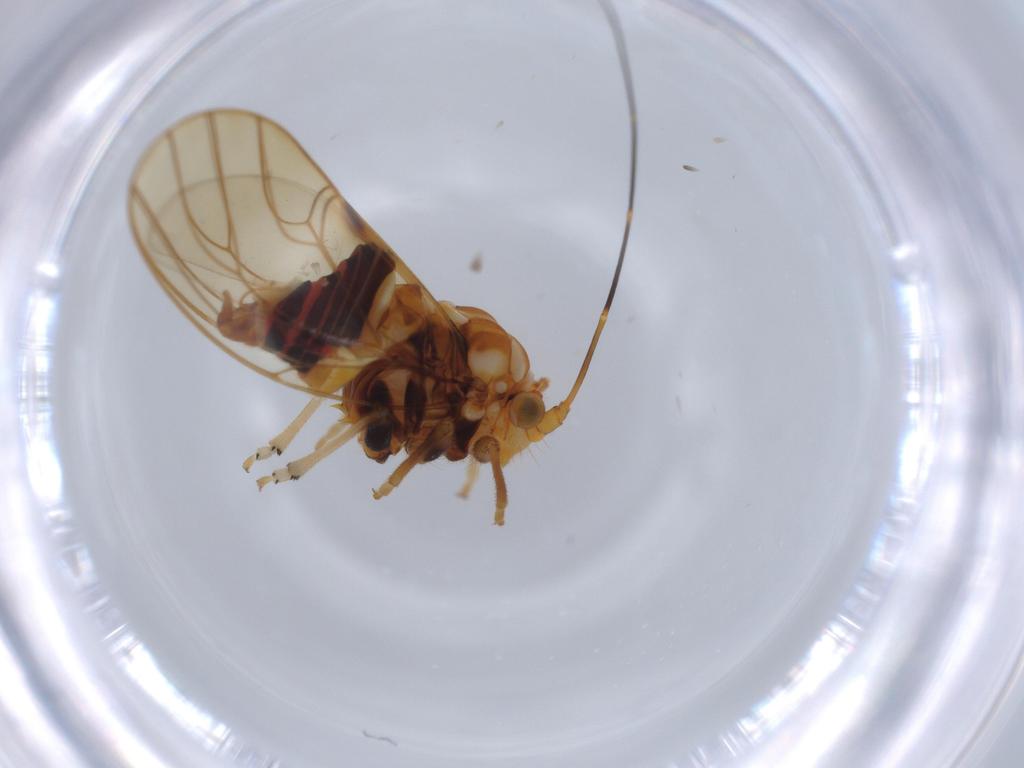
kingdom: Animalia
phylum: Arthropoda
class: Insecta
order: Hemiptera
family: Psyllidae
